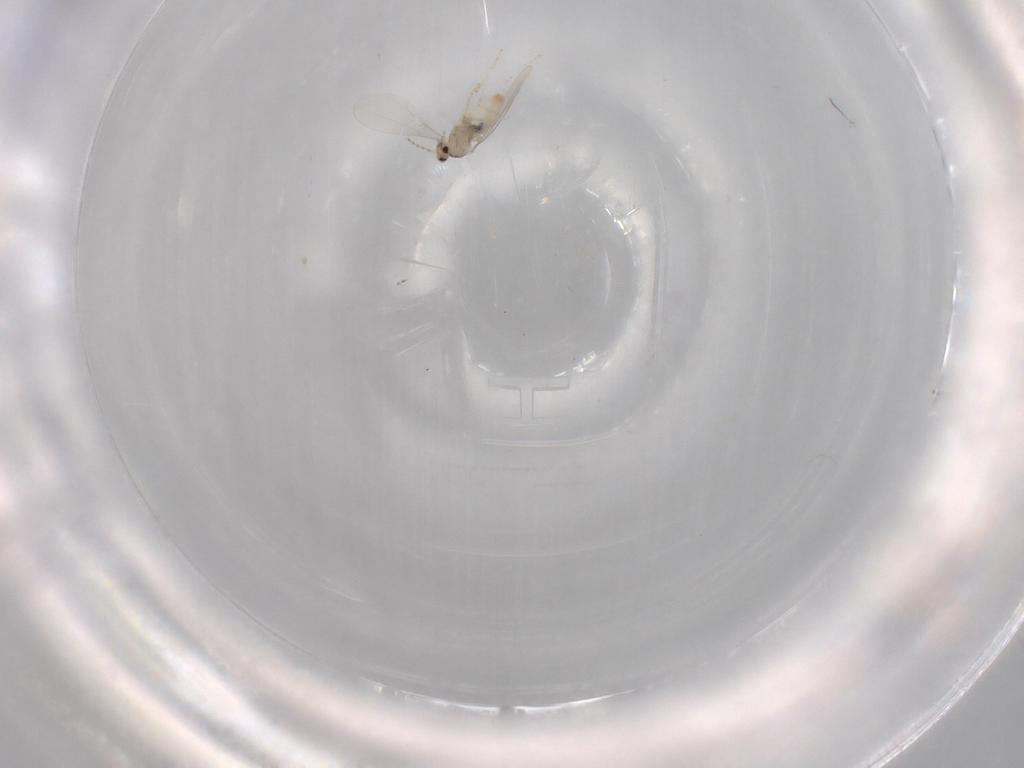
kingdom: Animalia
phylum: Arthropoda
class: Insecta
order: Diptera
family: Cecidomyiidae
